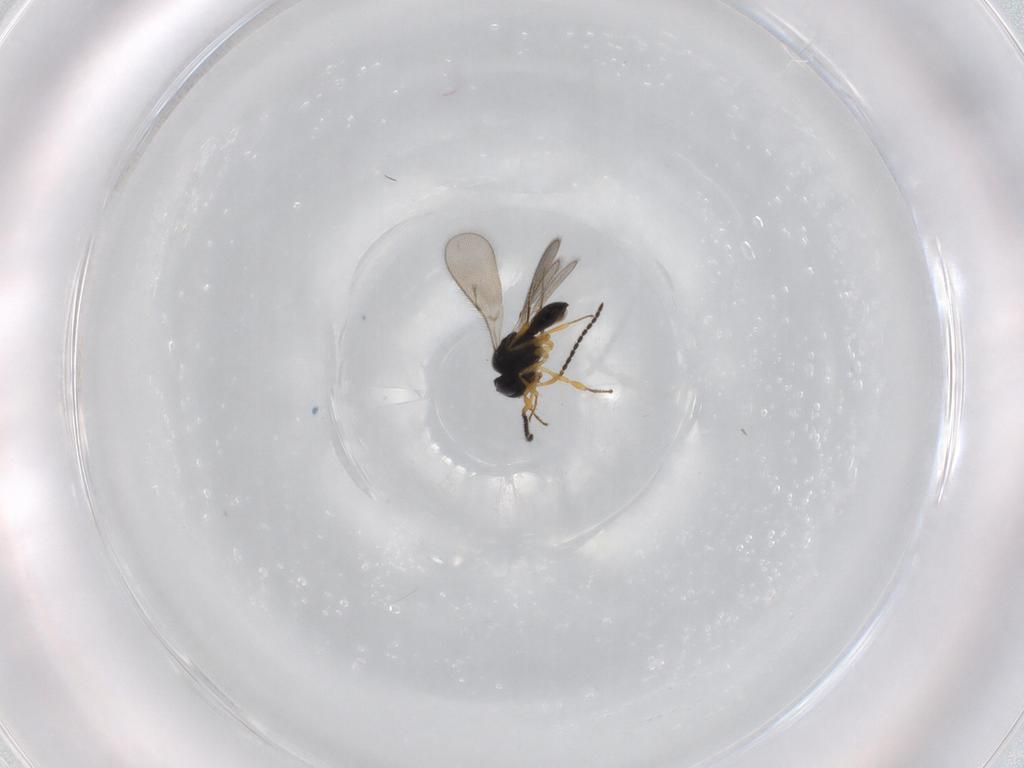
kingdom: Animalia
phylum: Arthropoda
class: Insecta
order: Hymenoptera
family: Scelionidae
